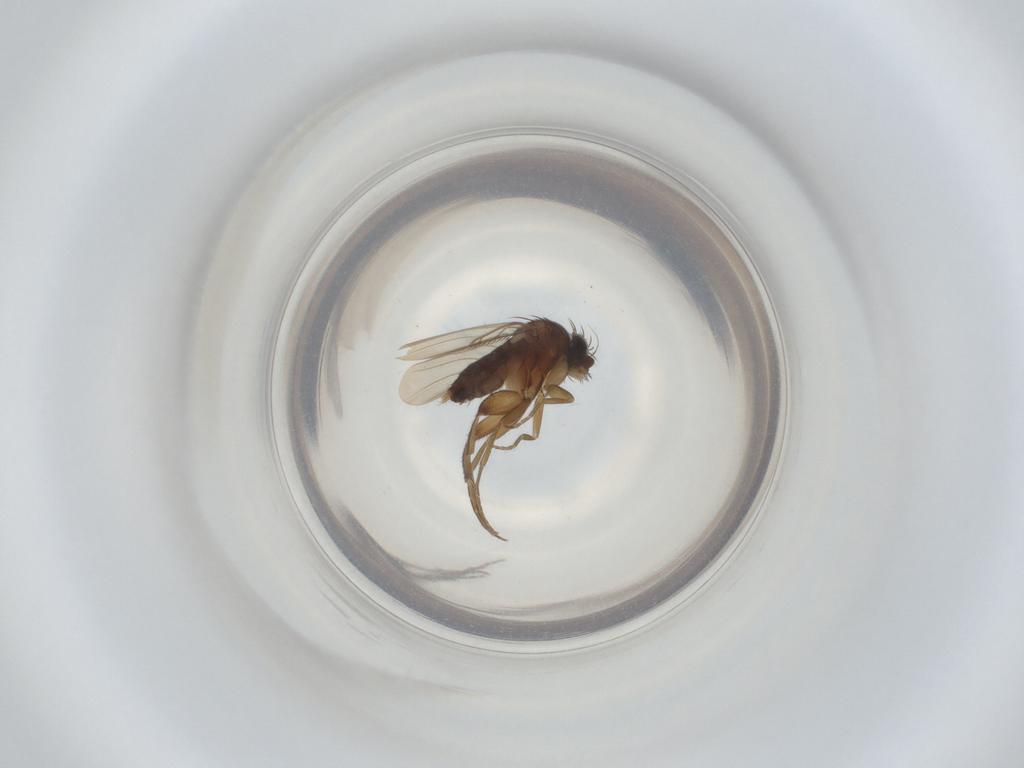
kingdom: Animalia
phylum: Arthropoda
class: Insecta
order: Diptera
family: Phoridae
